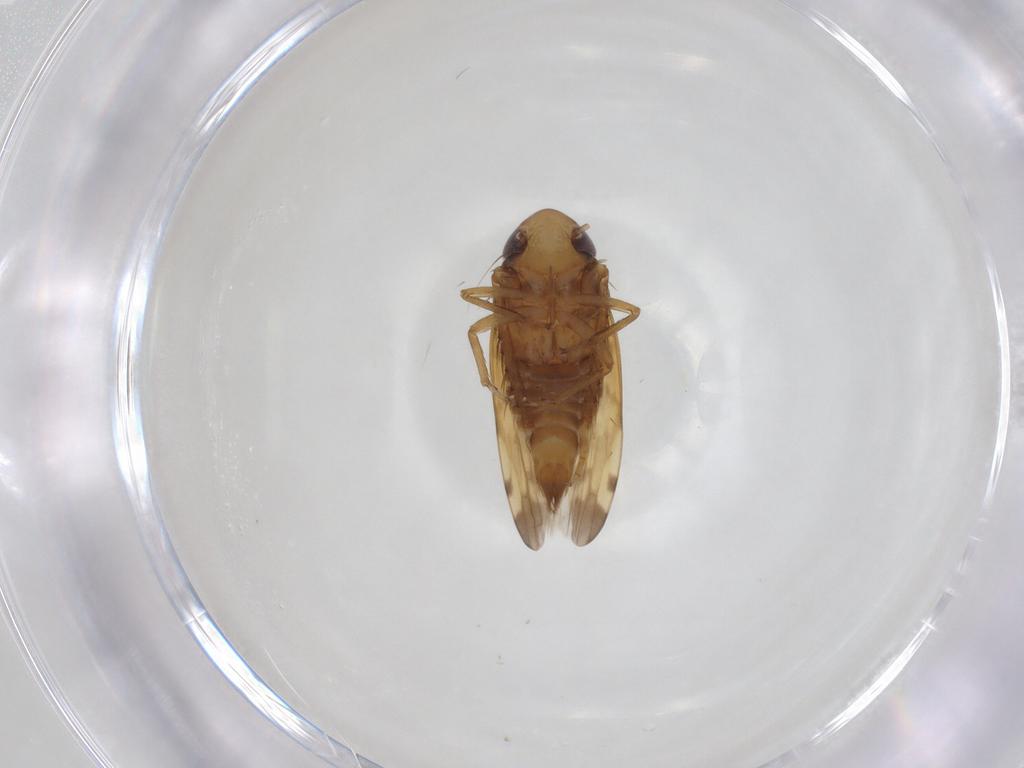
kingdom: Animalia
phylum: Arthropoda
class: Insecta
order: Hemiptera
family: Cicadellidae
